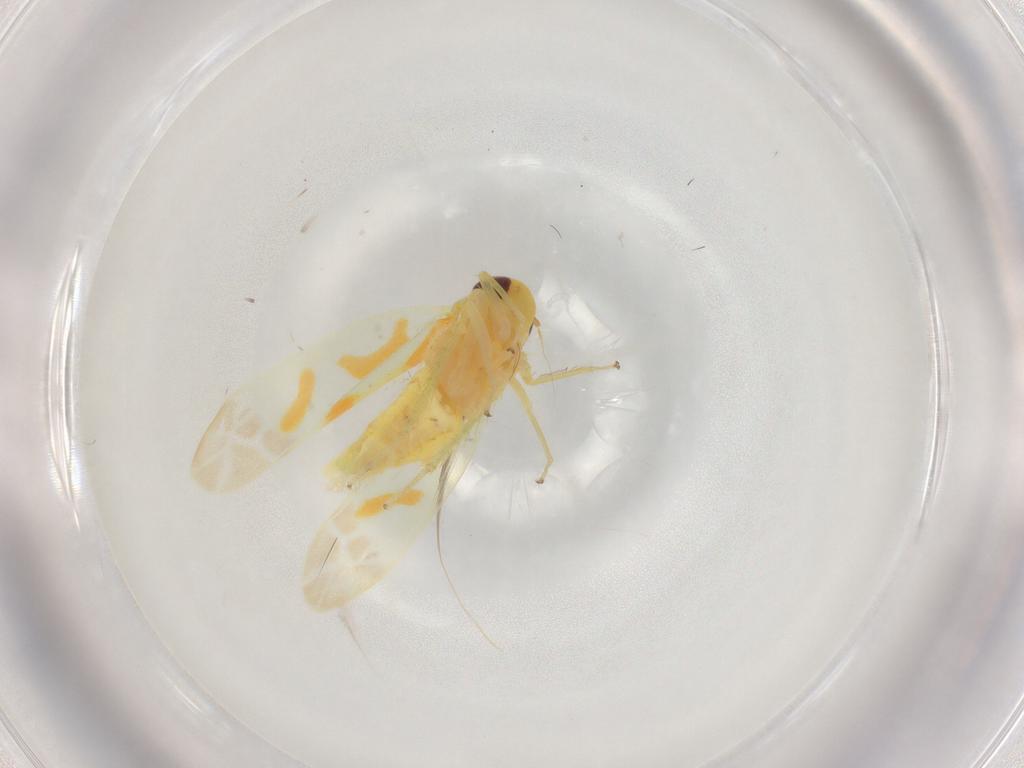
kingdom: Animalia
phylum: Arthropoda
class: Insecta
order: Hemiptera
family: Cicadellidae
